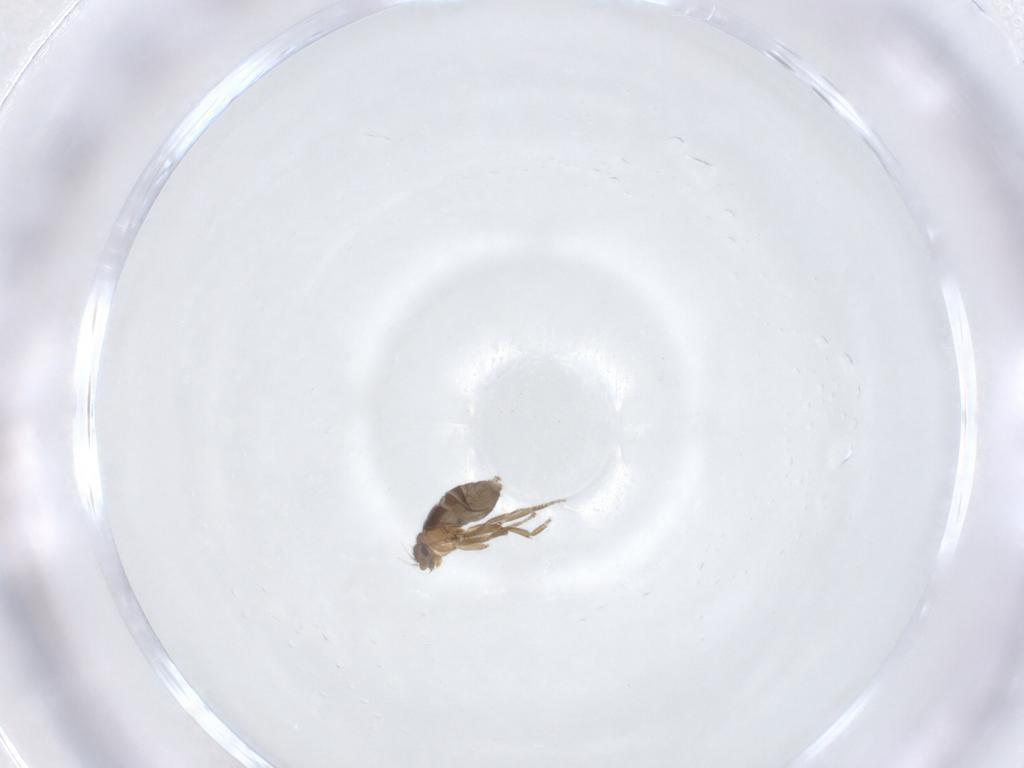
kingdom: Animalia
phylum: Arthropoda
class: Insecta
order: Diptera
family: Phoridae
